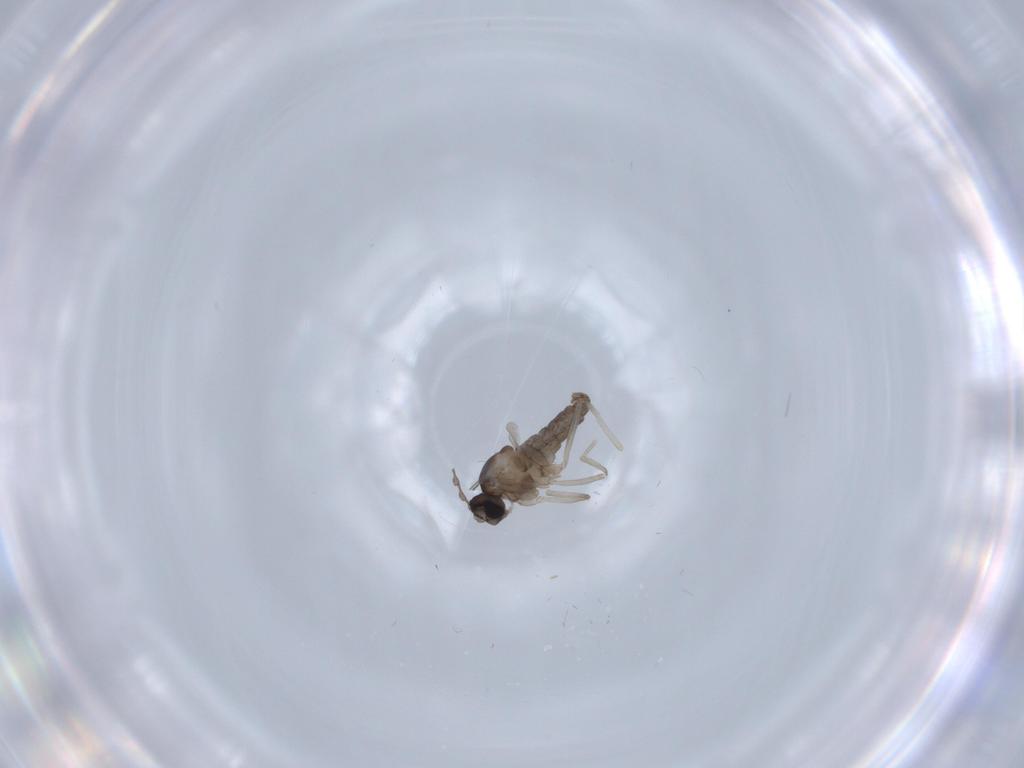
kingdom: Animalia
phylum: Arthropoda
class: Insecta
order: Diptera
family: Cecidomyiidae
